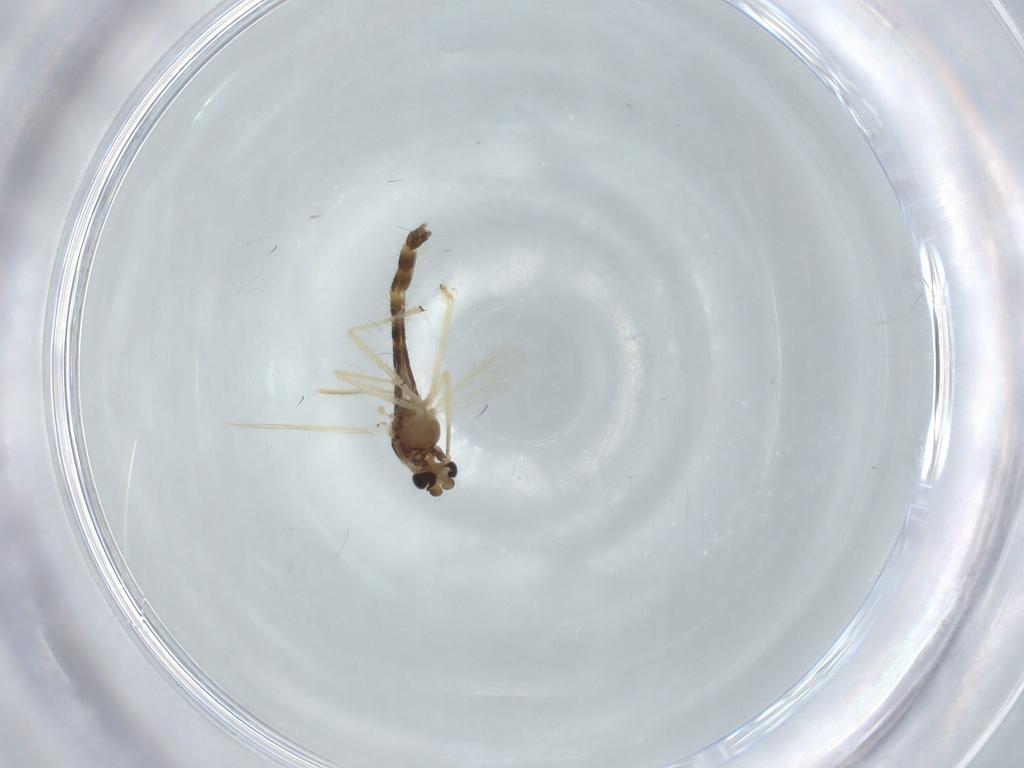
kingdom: Animalia
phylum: Arthropoda
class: Insecta
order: Diptera
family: Chironomidae
